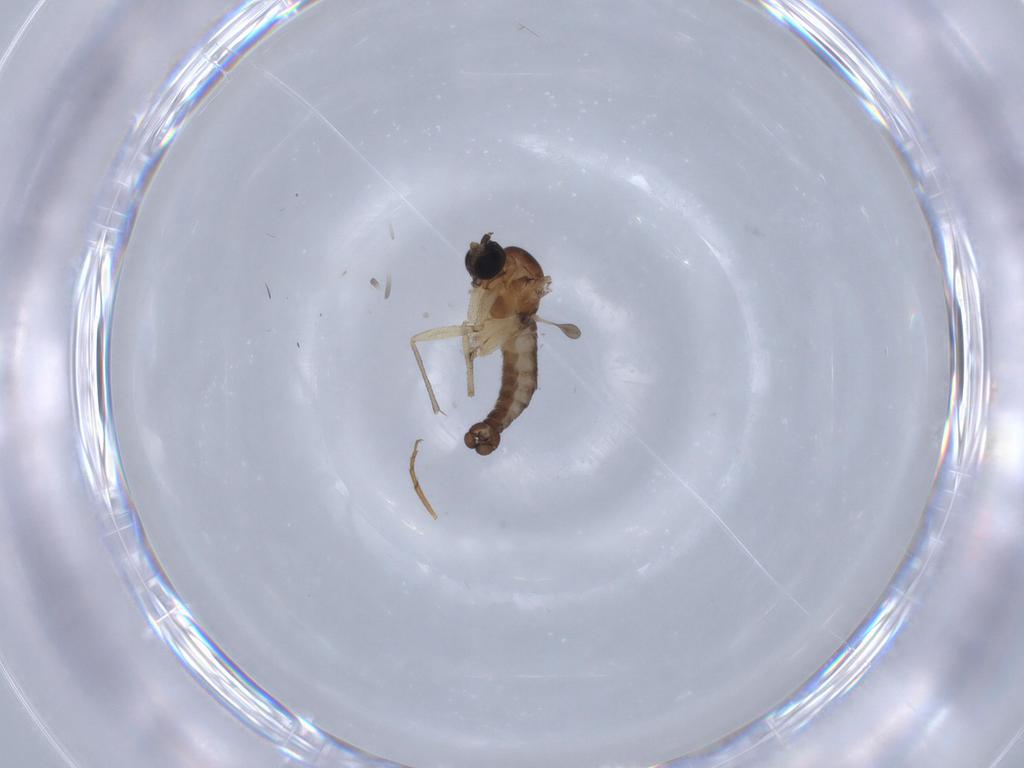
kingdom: Animalia
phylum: Arthropoda
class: Insecta
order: Diptera
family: Sciaridae
